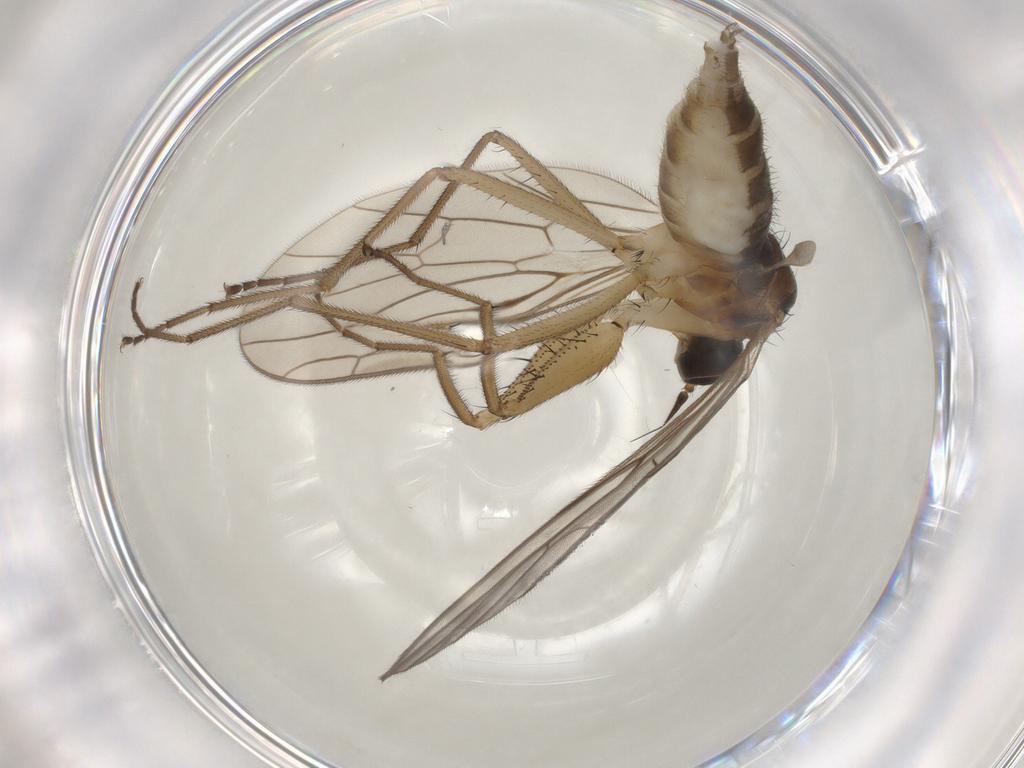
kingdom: Animalia
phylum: Arthropoda
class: Insecta
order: Diptera
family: Empididae
